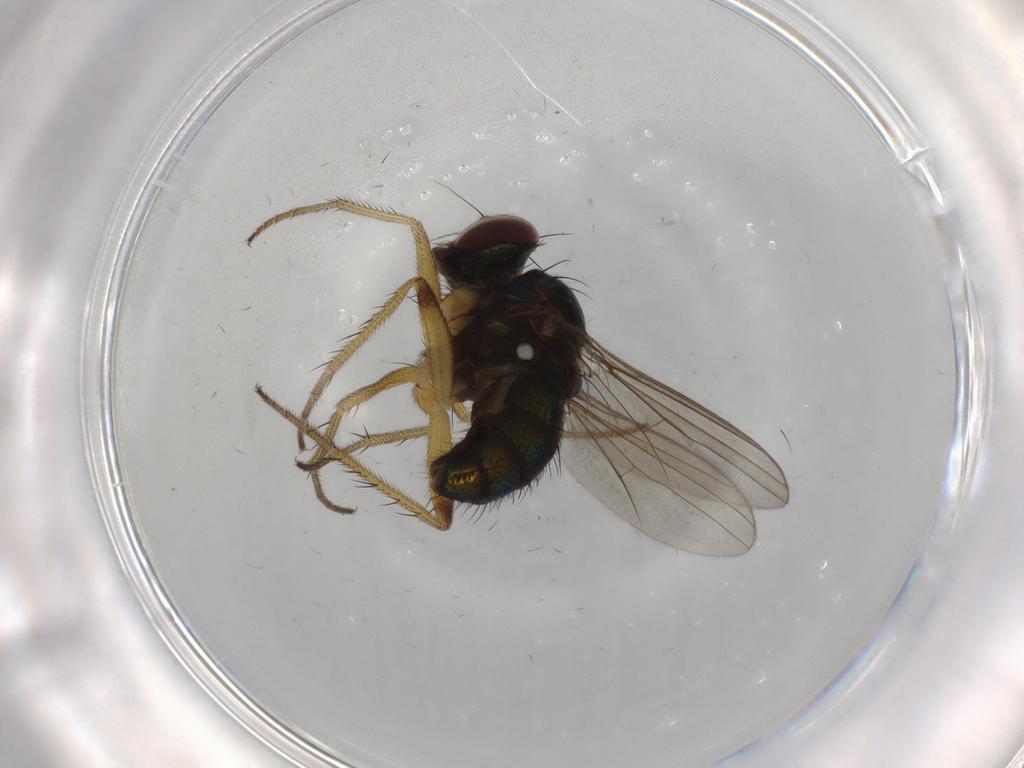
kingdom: Animalia
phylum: Arthropoda
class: Insecta
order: Diptera
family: Dolichopodidae
